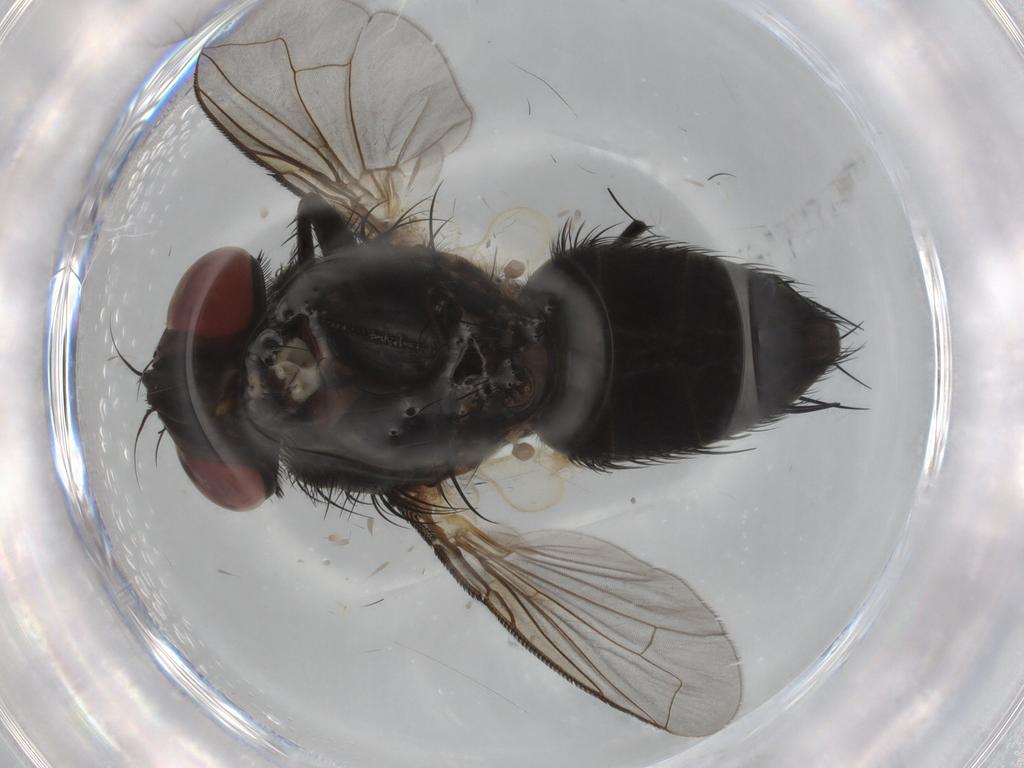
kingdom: Animalia
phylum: Arthropoda
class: Insecta
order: Diptera
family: Tachinidae
